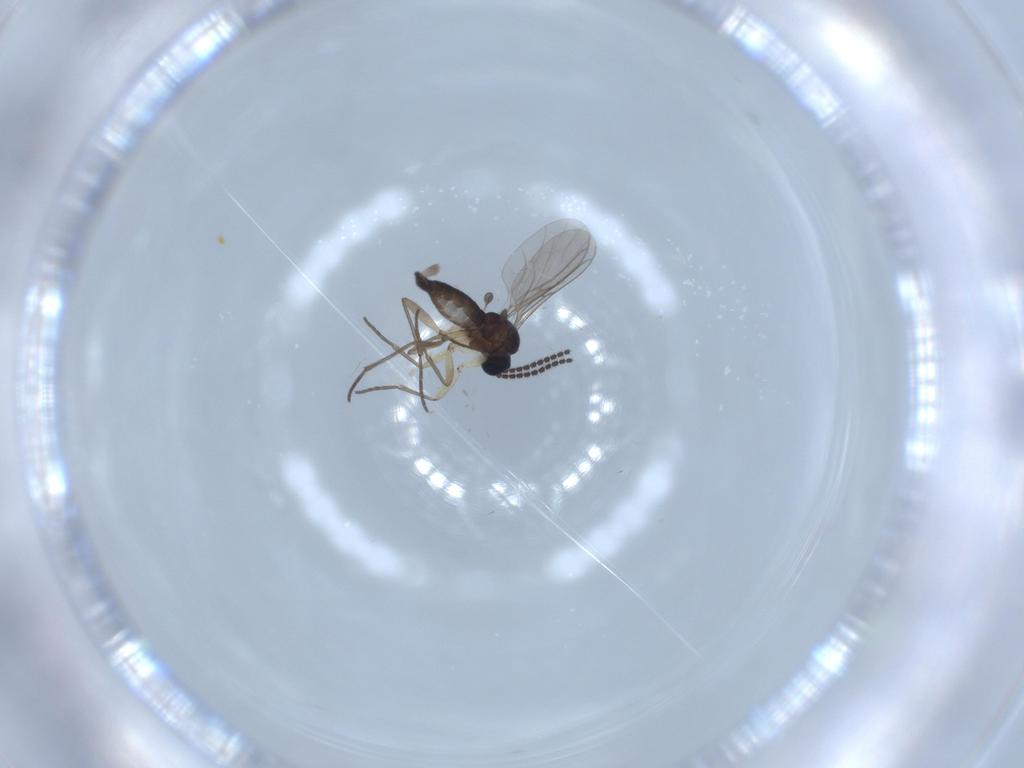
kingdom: Animalia
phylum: Arthropoda
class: Insecta
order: Diptera
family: Sciaridae
